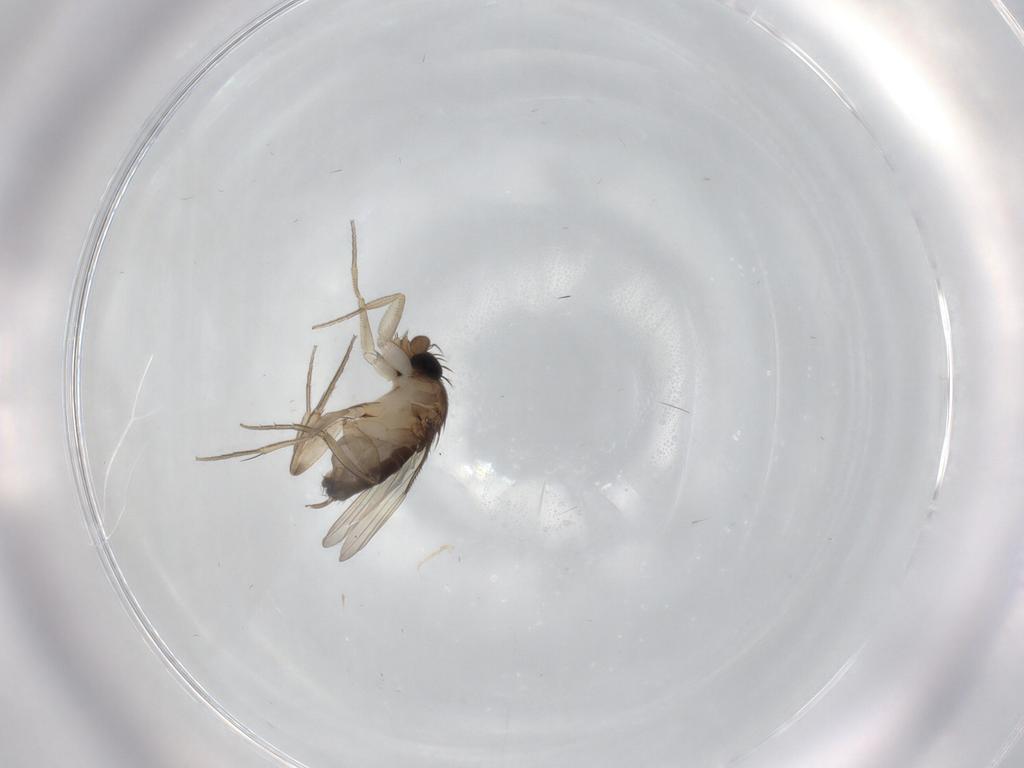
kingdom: Animalia
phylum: Arthropoda
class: Insecta
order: Diptera
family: Phoridae
